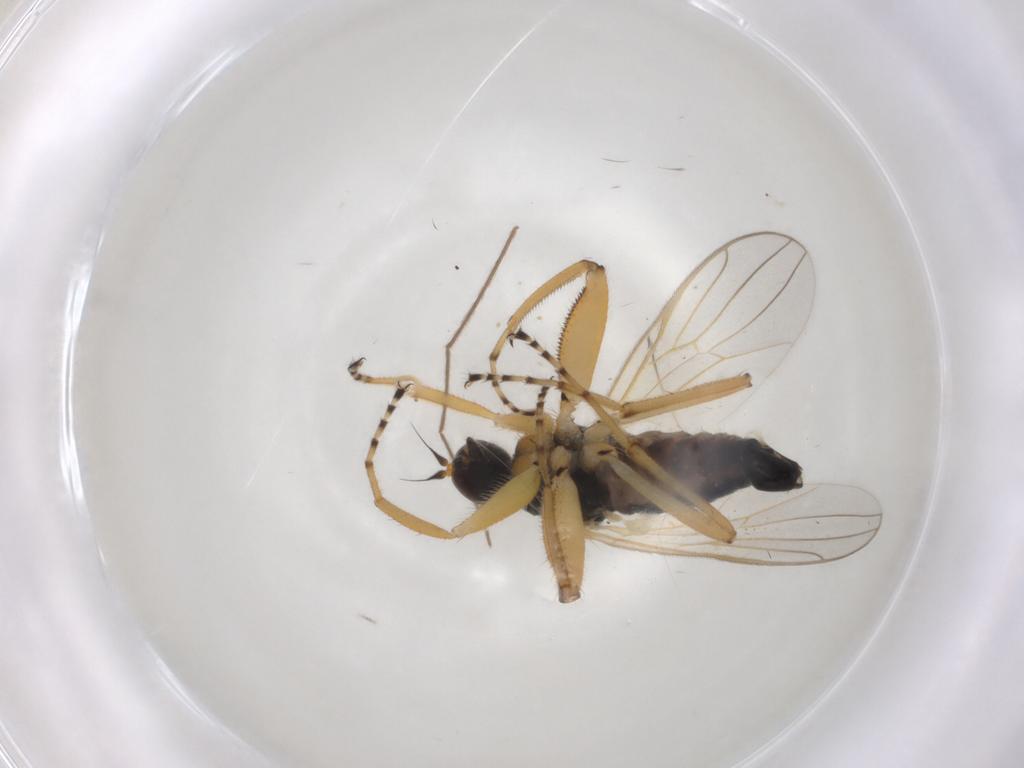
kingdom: Animalia
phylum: Arthropoda
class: Insecta
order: Diptera
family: Hybotidae
